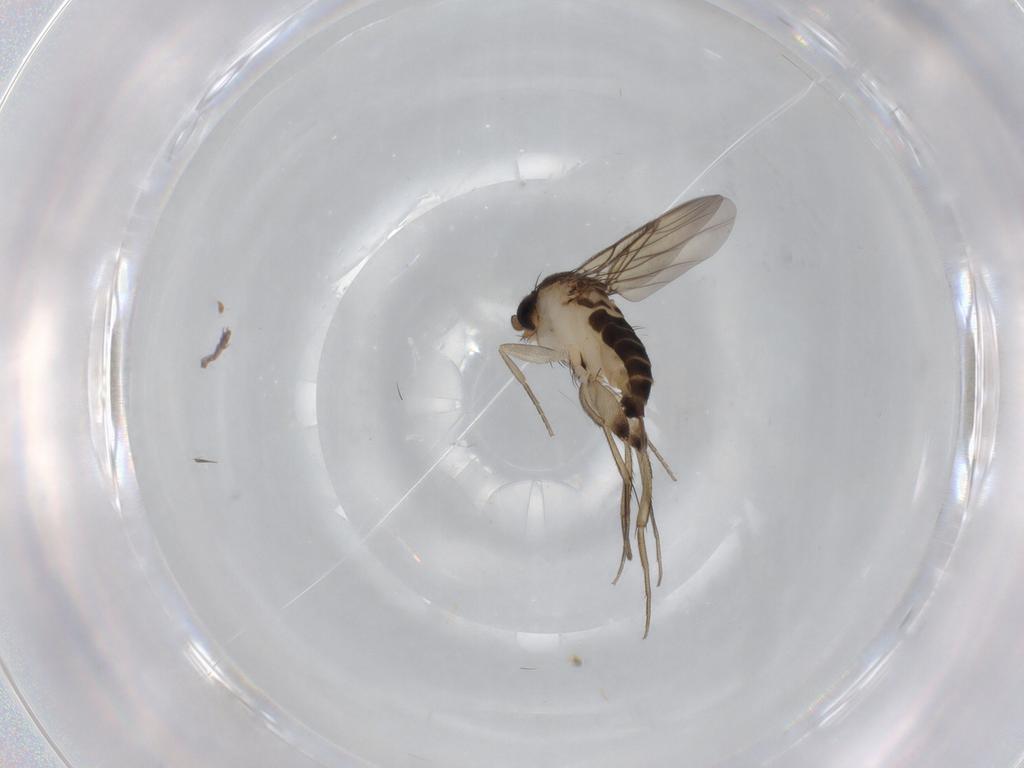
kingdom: Animalia
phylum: Arthropoda
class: Insecta
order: Diptera
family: Phoridae
